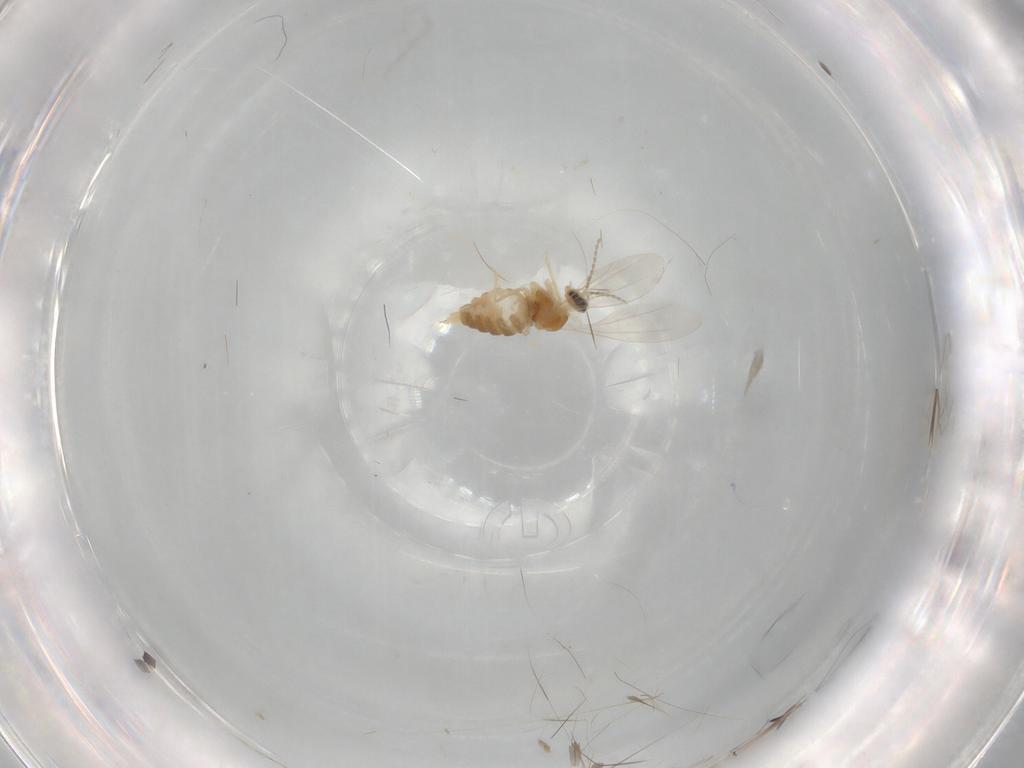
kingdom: Animalia
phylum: Arthropoda
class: Insecta
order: Diptera
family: Cecidomyiidae
